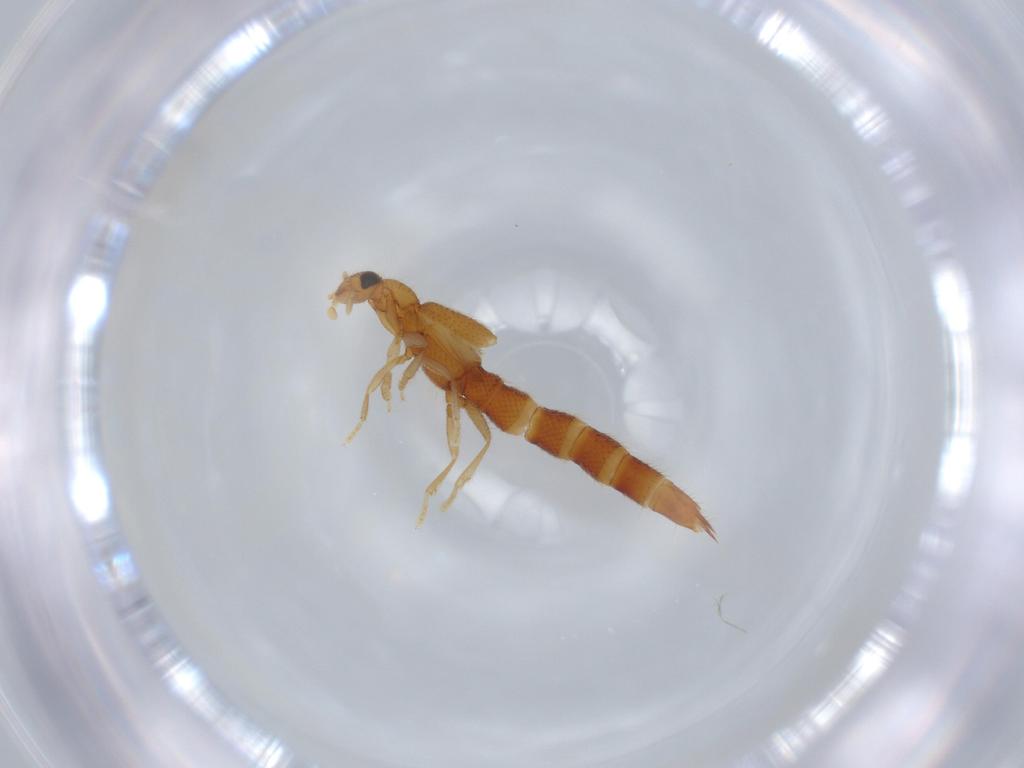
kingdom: Animalia
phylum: Arthropoda
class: Insecta
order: Coleoptera
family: Staphylinidae
